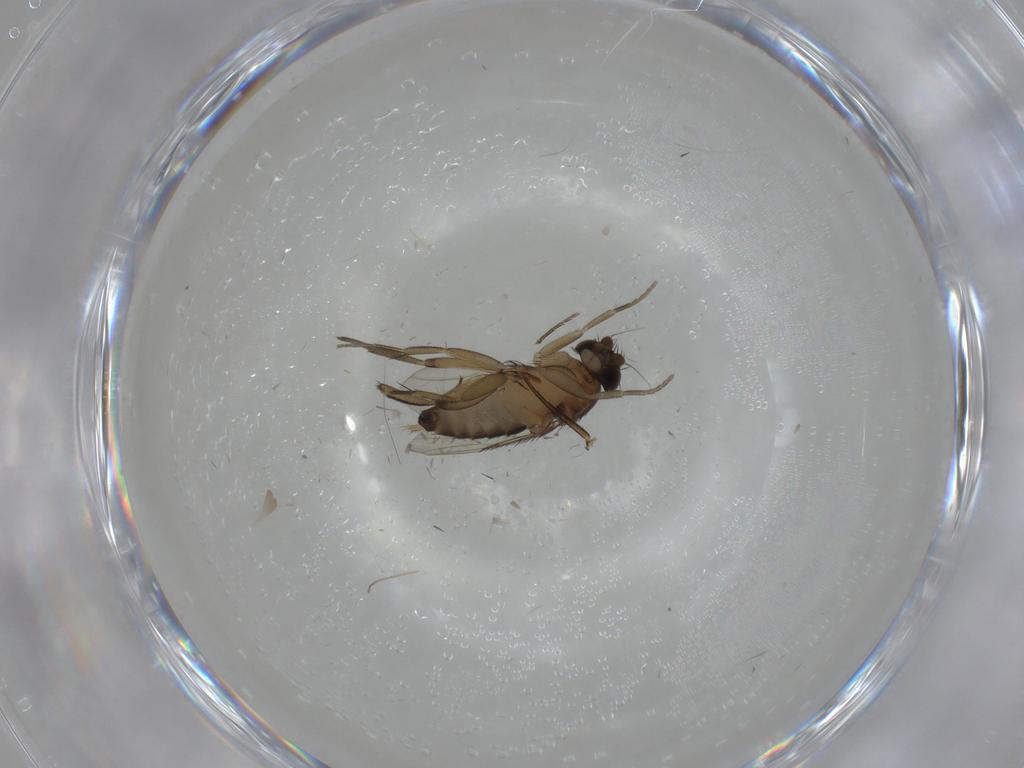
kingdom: Animalia
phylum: Arthropoda
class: Insecta
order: Diptera
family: Phoridae
